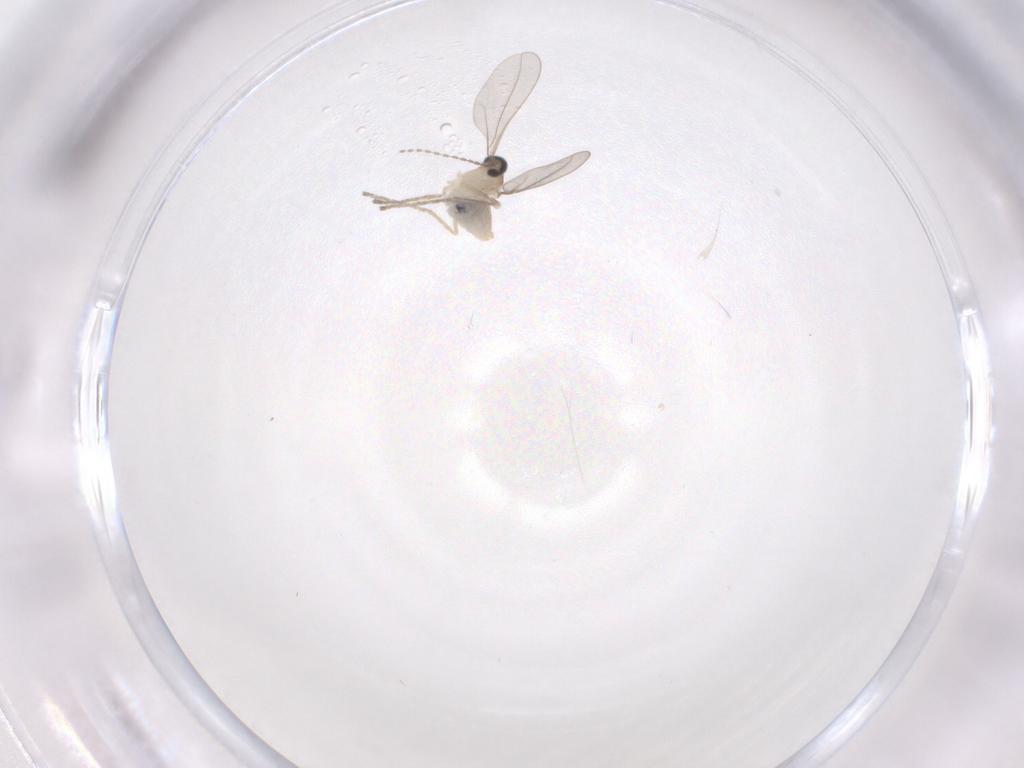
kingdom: Animalia
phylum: Arthropoda
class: Insecta
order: Diptera
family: Cecidomyiidae
